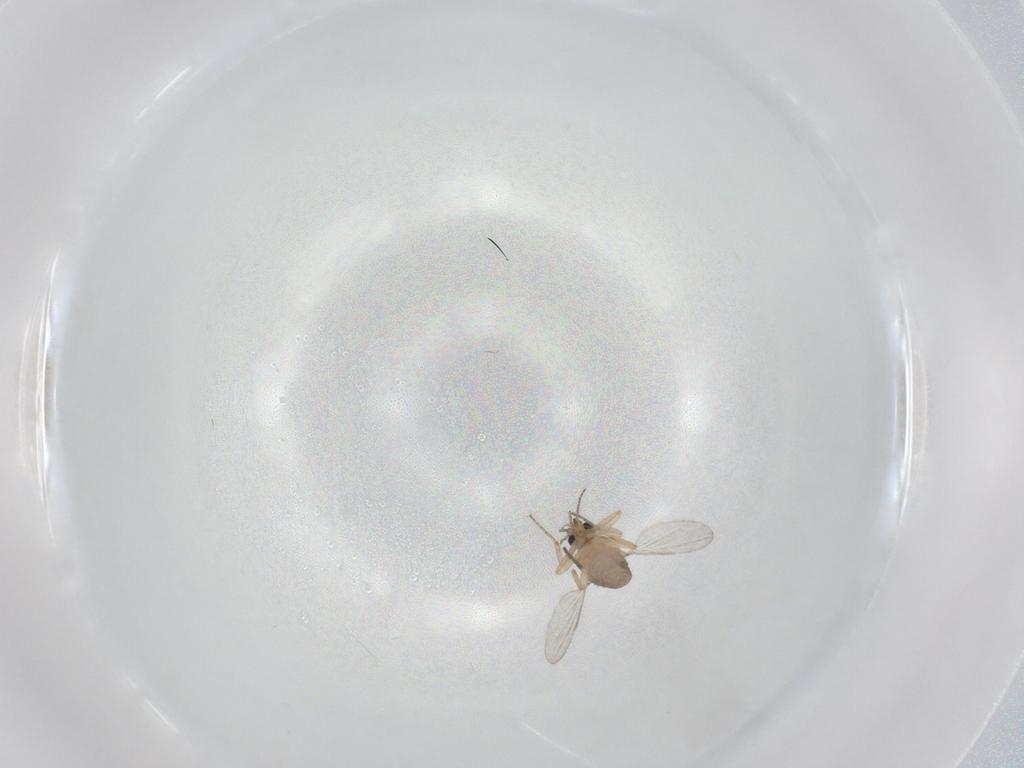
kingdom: Animalia
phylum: Arthropoda
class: Insecta
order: Diptera
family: Ceratopogonidae
